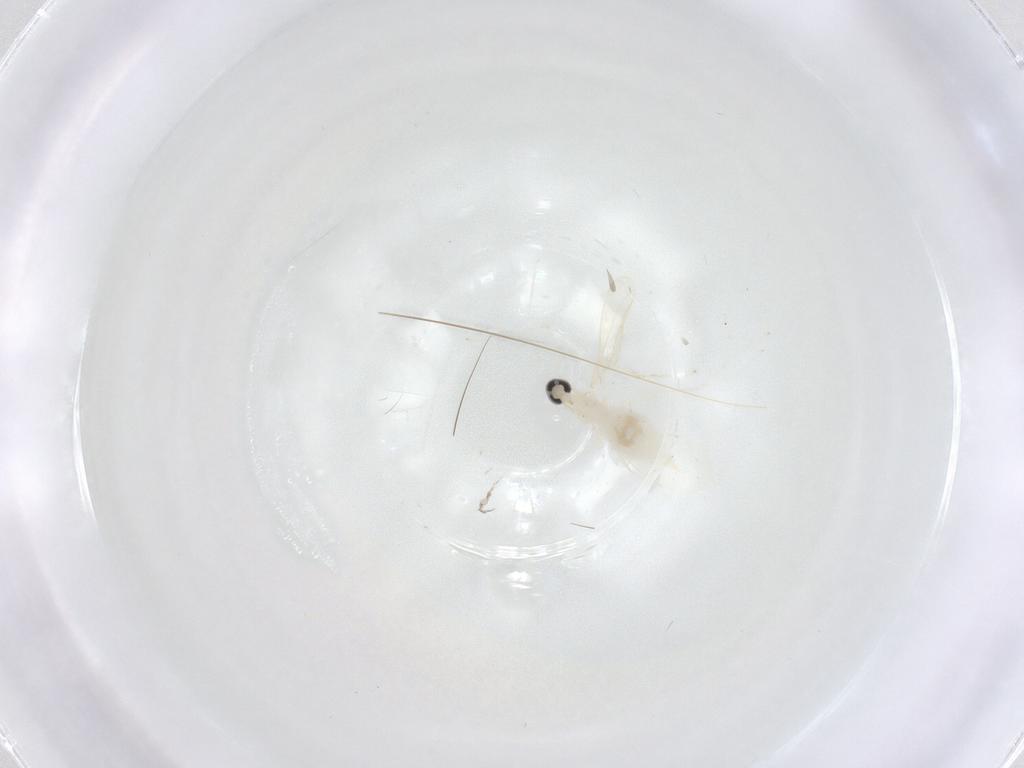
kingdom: Animalia
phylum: Arthropoda
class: Insecta
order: Diptera
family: Cecidomyiidae
